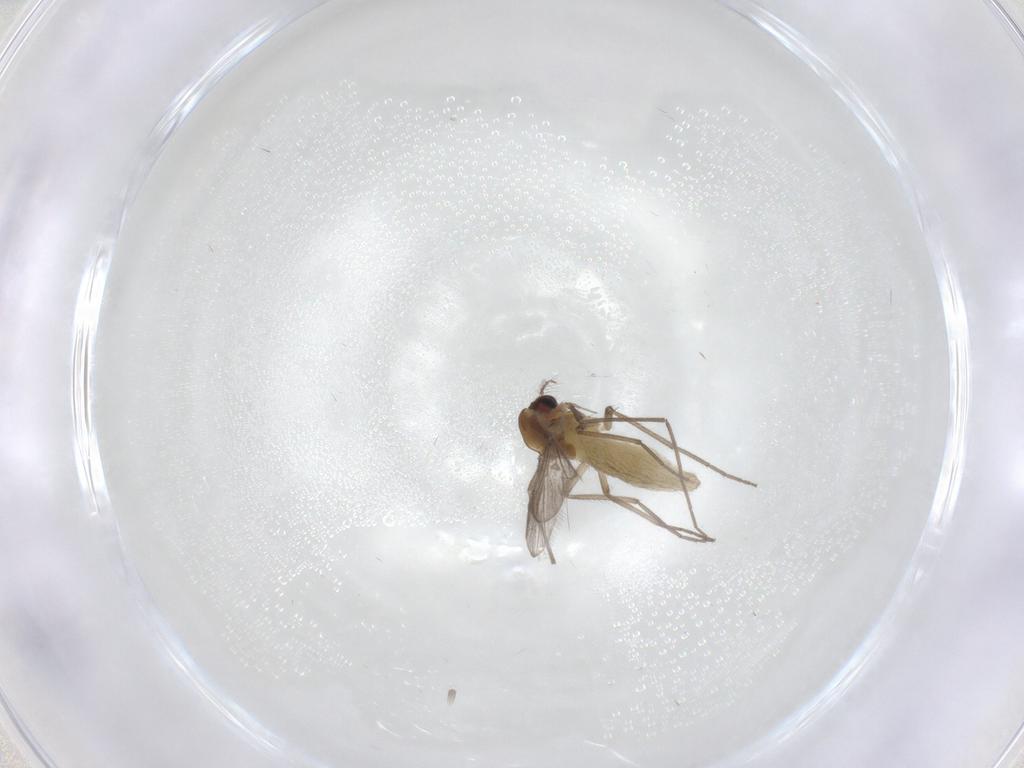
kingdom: Animalia
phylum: Arthropoda
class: Insecta
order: Diptera
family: Chironomidae
